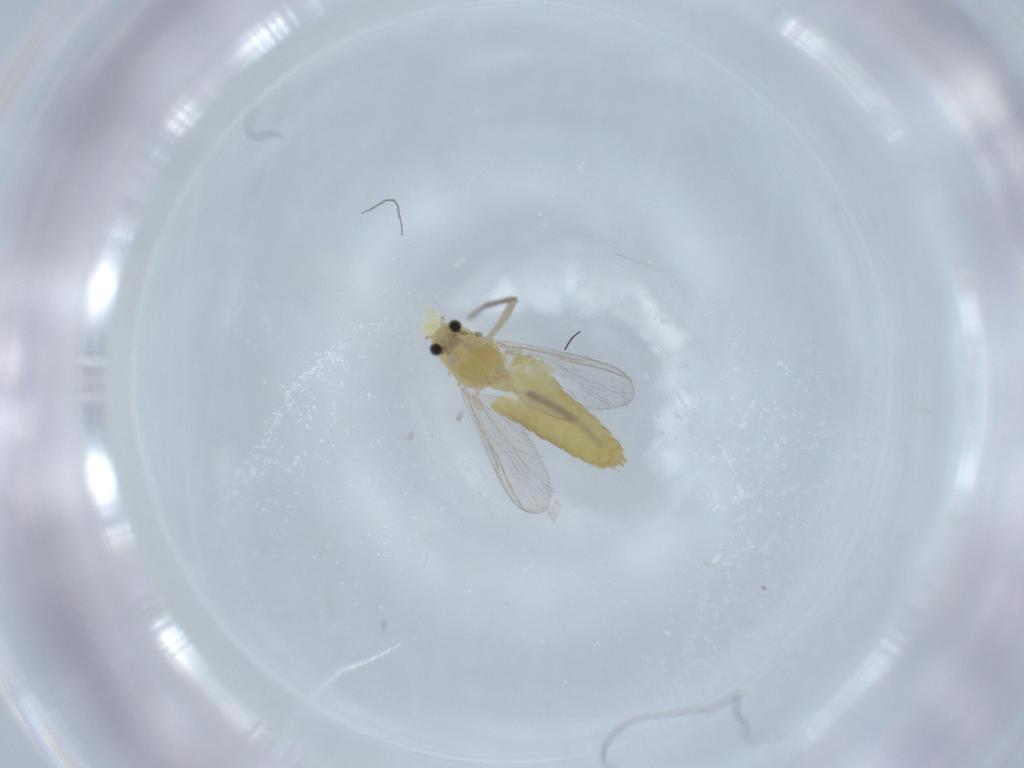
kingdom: Animalia
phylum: Arthropoda
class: Insecta
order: Diptera
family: Chironomidae
